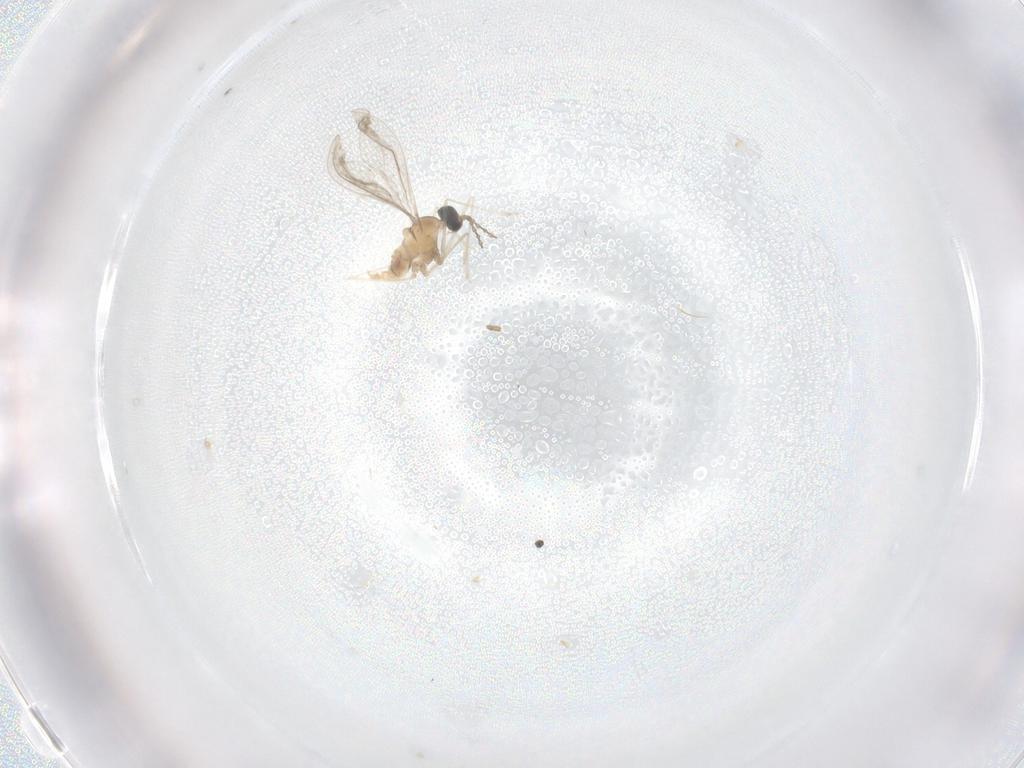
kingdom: Animalia
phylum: Arthropoda
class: Insecta
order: Diptera
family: Cecidomyiidae
